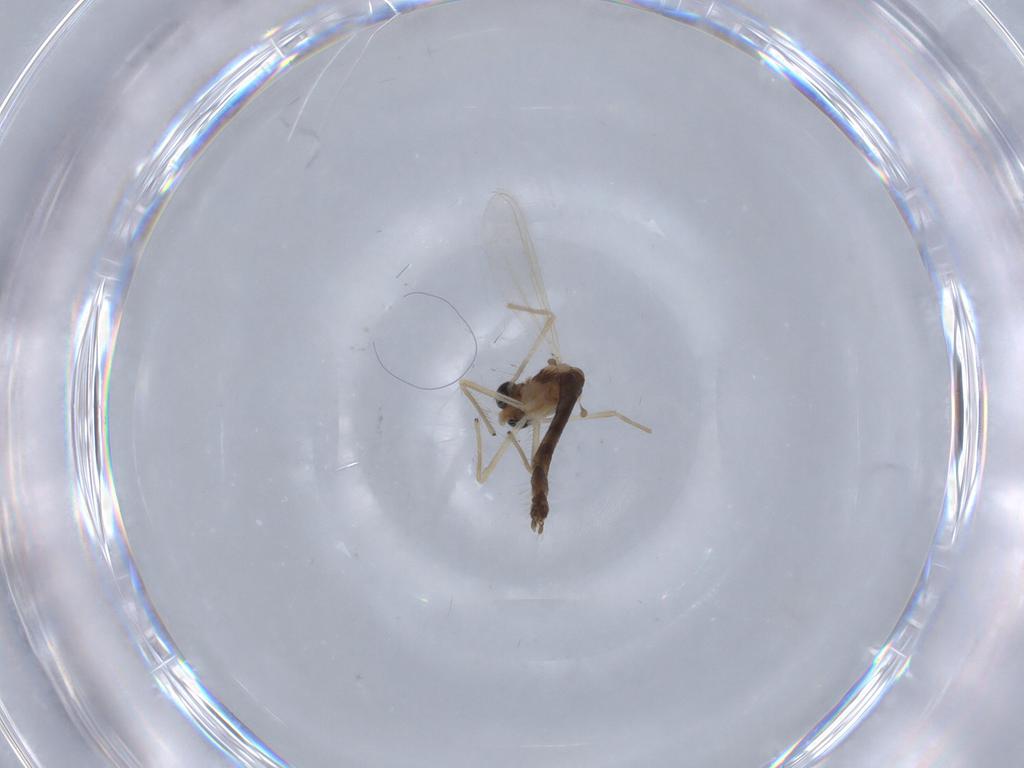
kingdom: Animalia
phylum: Arthropoda
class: Insecta
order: Diptera
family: Chironomidae
